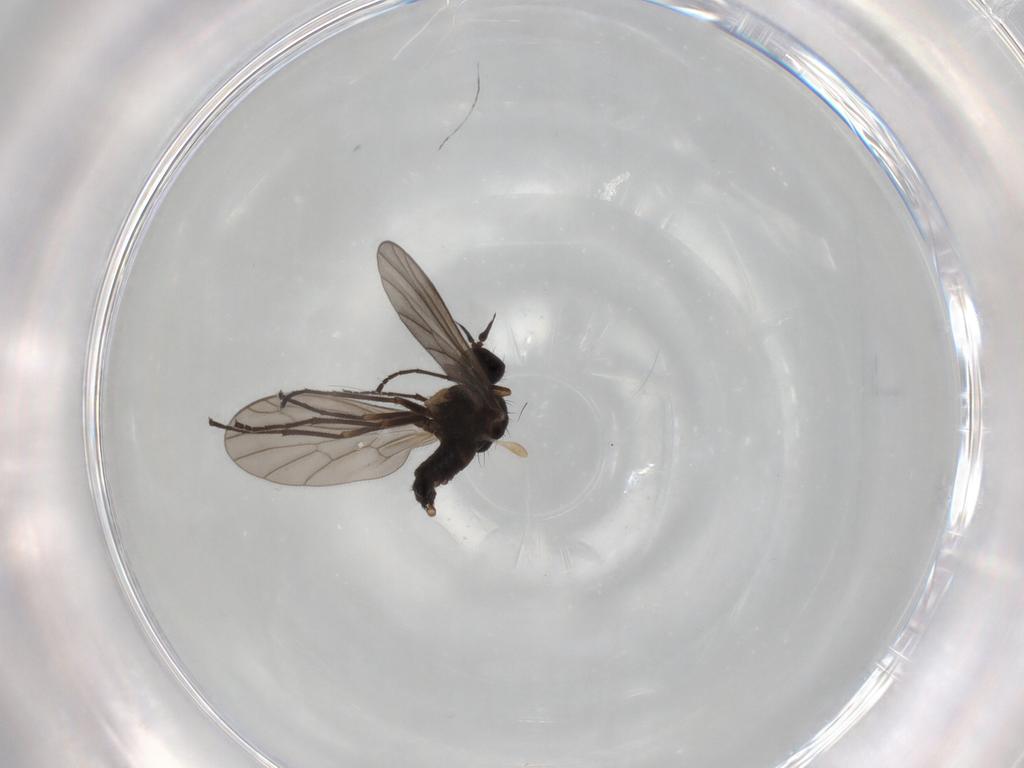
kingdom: Animalia
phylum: Arthropoda
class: Insecta
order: Diptera
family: Empididae
